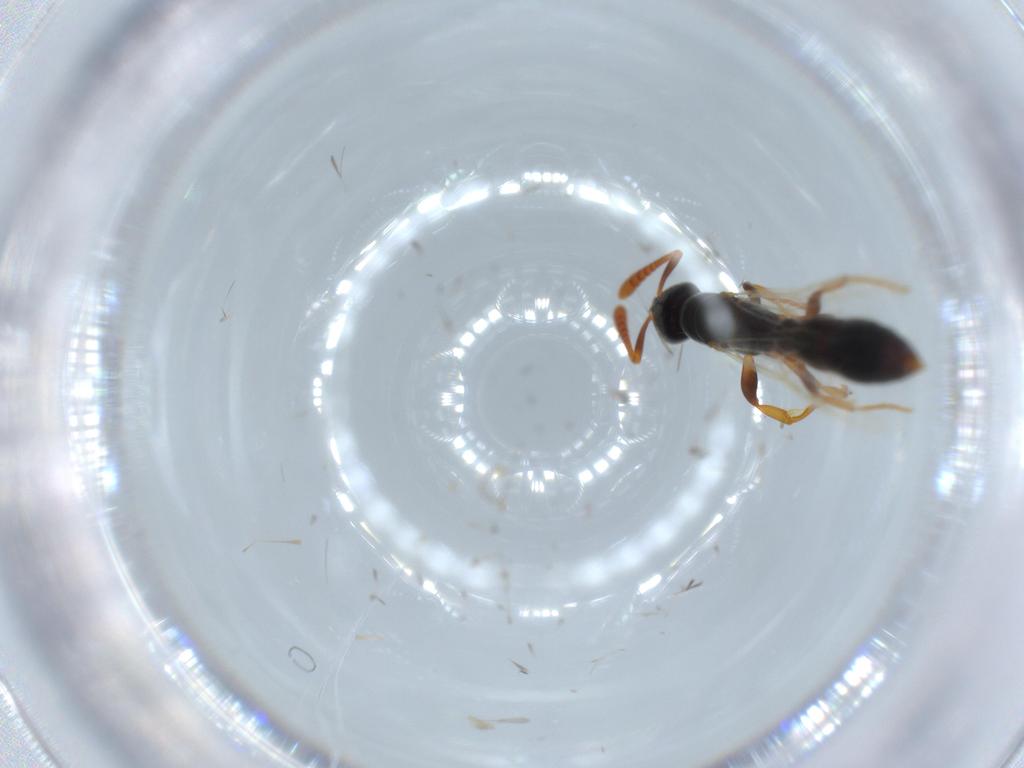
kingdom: Animalia
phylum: Arthropoda
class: Insecta
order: Hymenoptera
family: Formicidae
